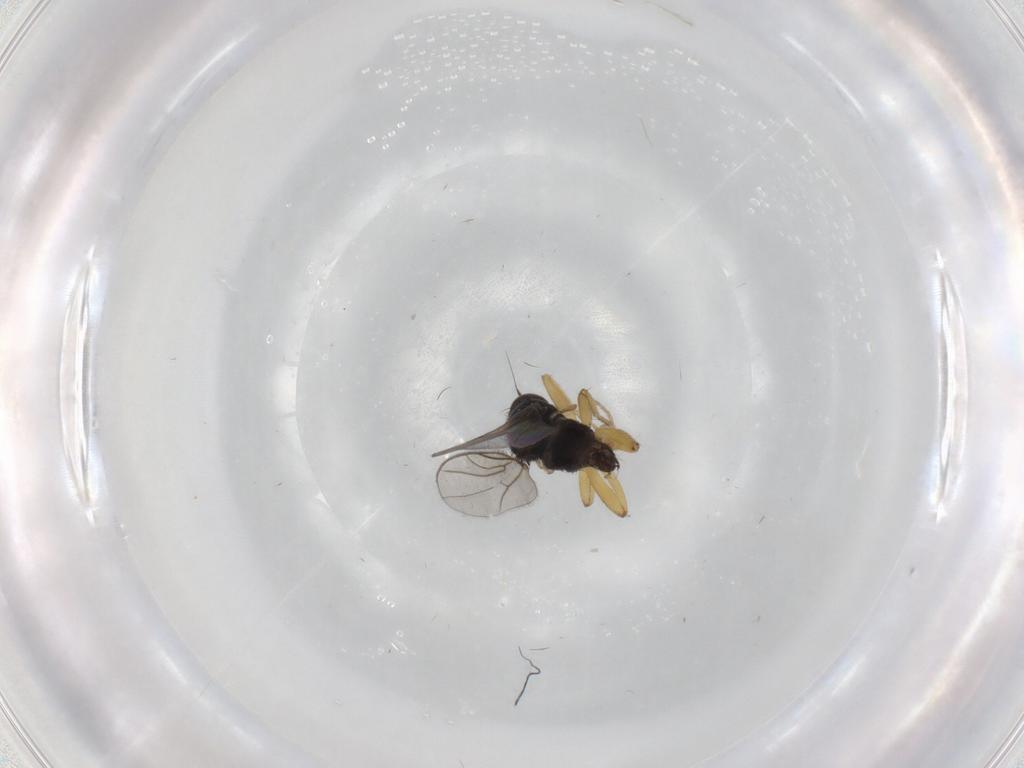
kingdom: Animalia
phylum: Arthropoda
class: Insecta
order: Diptera
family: Hybotidae
